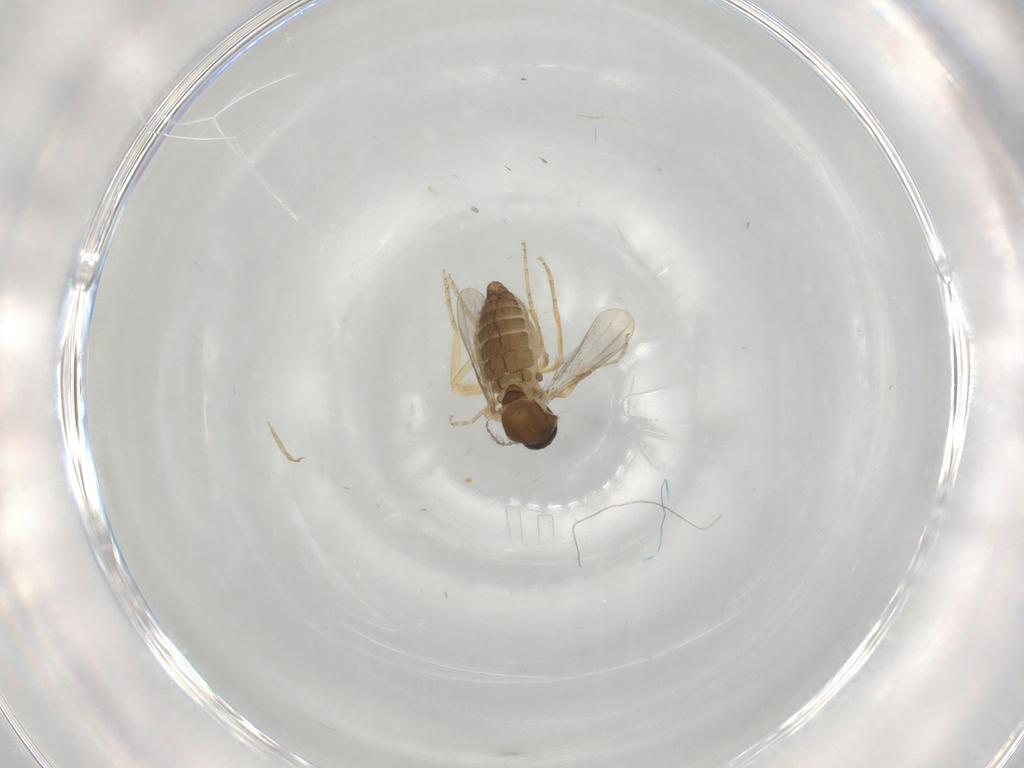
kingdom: Animalia
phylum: Arthropoda
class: Insecta
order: Diptera
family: Ceratopogonidae
